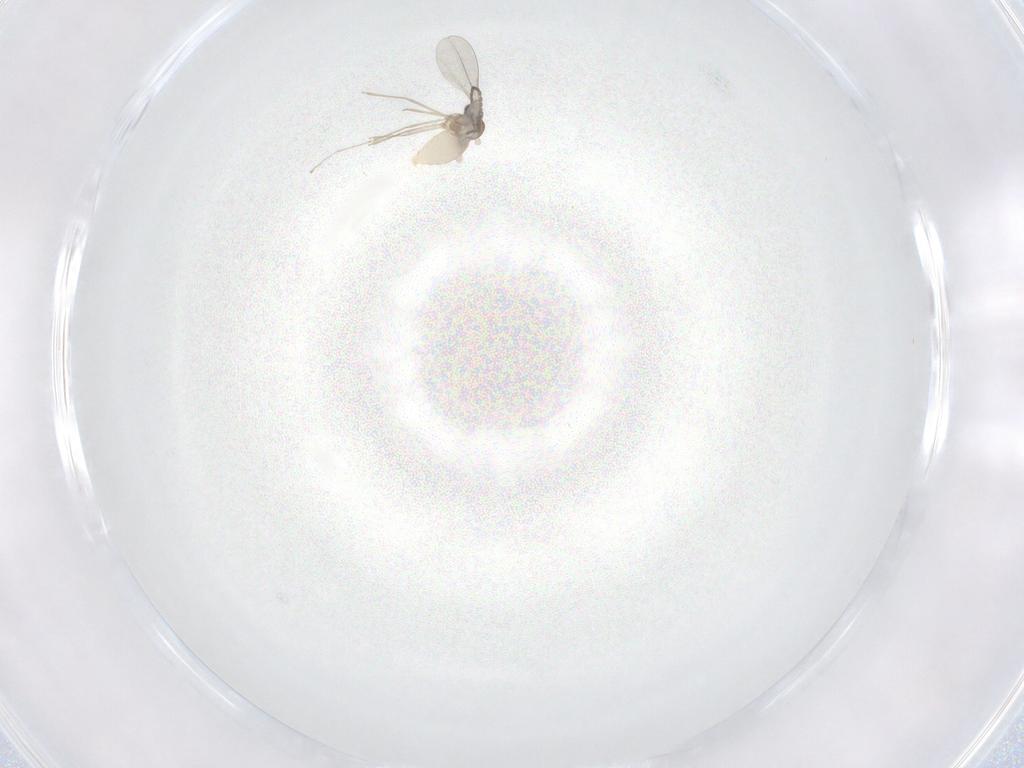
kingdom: Animalia
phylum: Arthropoda
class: Insecta
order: Diptera
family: Cecidomyiidae
